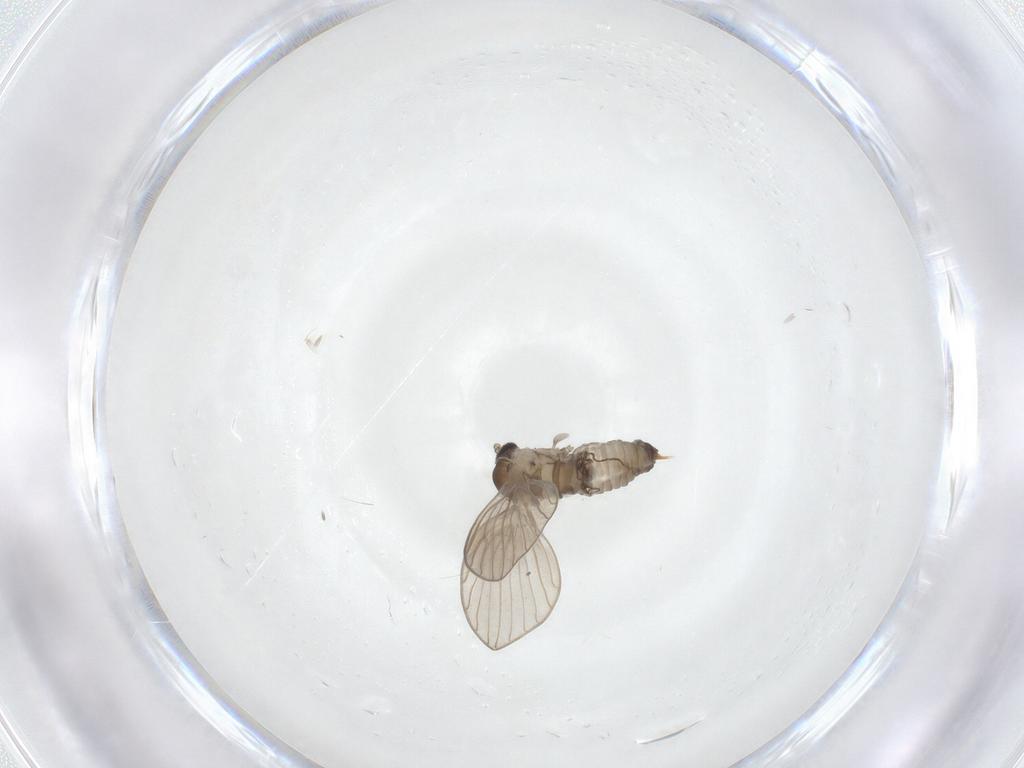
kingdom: Animalia
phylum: Arthropoda
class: Insecta
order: Diptera
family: Psychodidae
